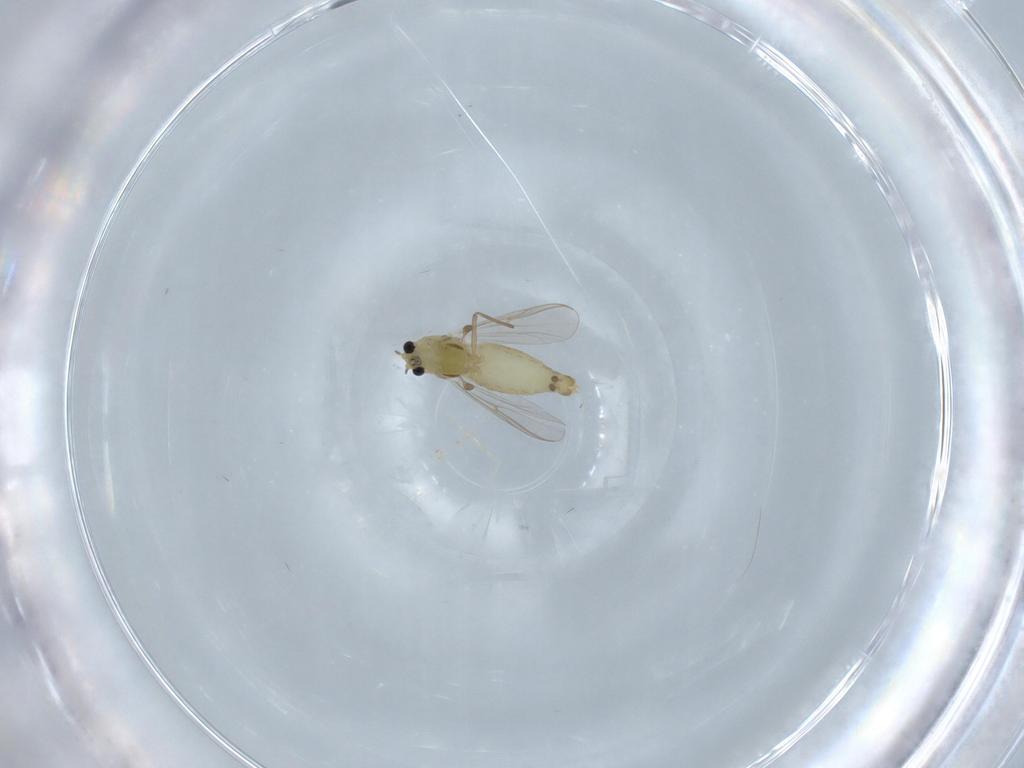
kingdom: Animalia
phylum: Arthropoda
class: Insecta
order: Diptera
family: Chironomidae
